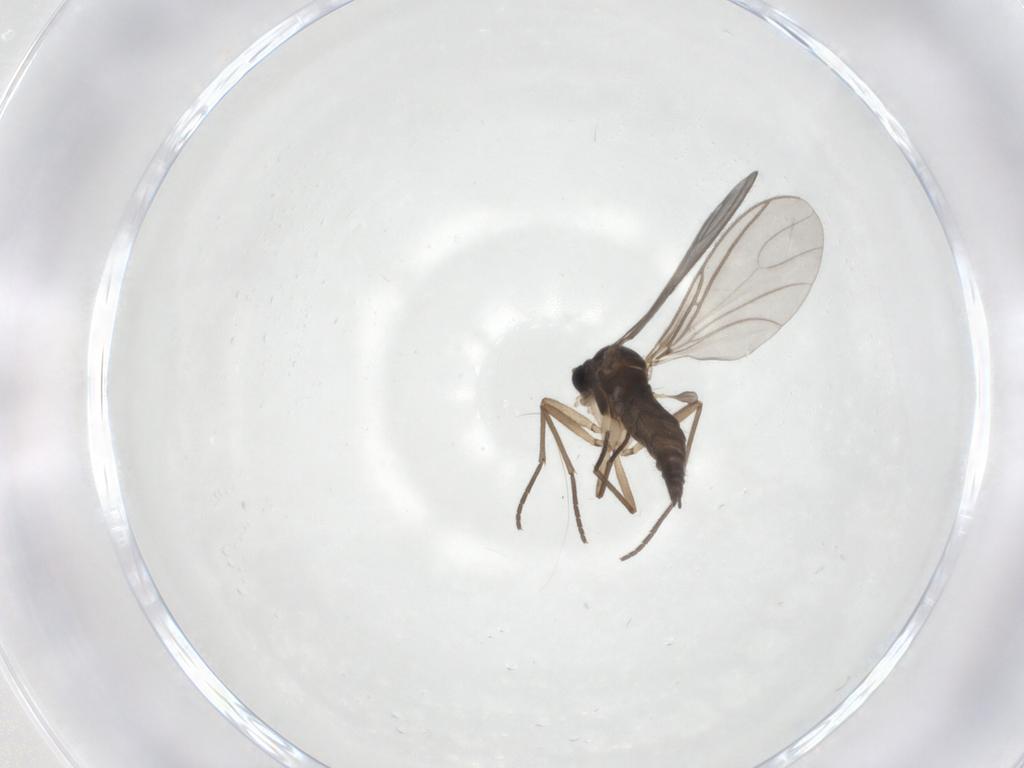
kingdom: Animalia
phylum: Arthropoda
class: Insecta
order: Diptera
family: Sciaridae
